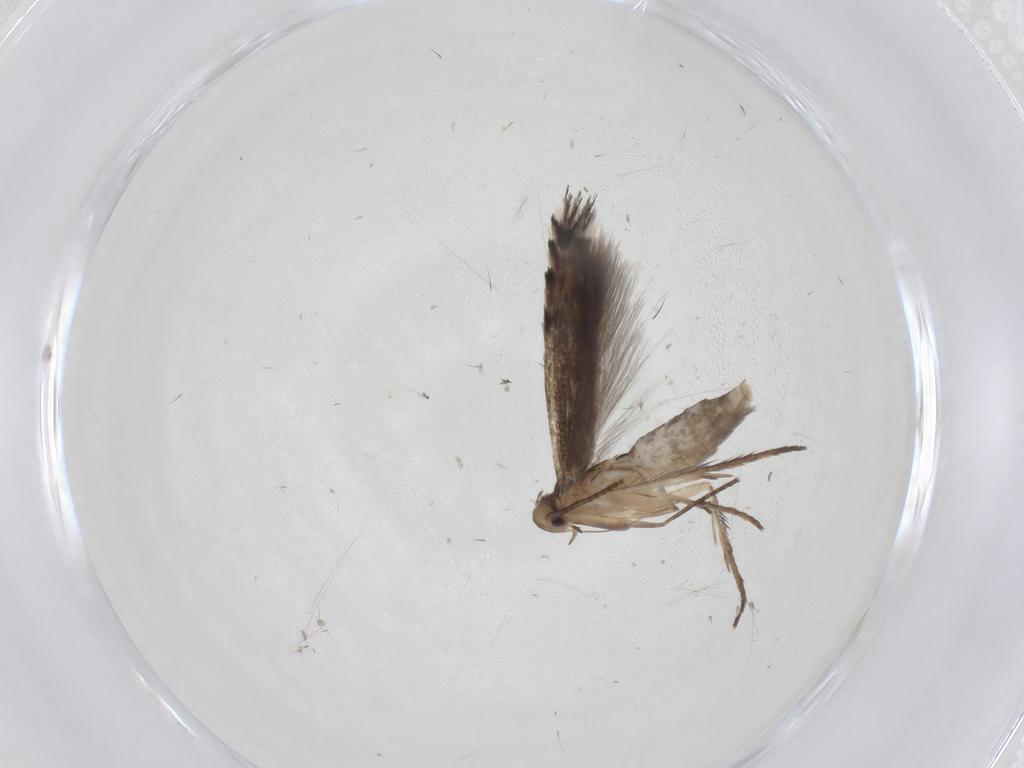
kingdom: Animalia
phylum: Arthropoda
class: Insecta
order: Lepidoptera
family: Gracillariidae
